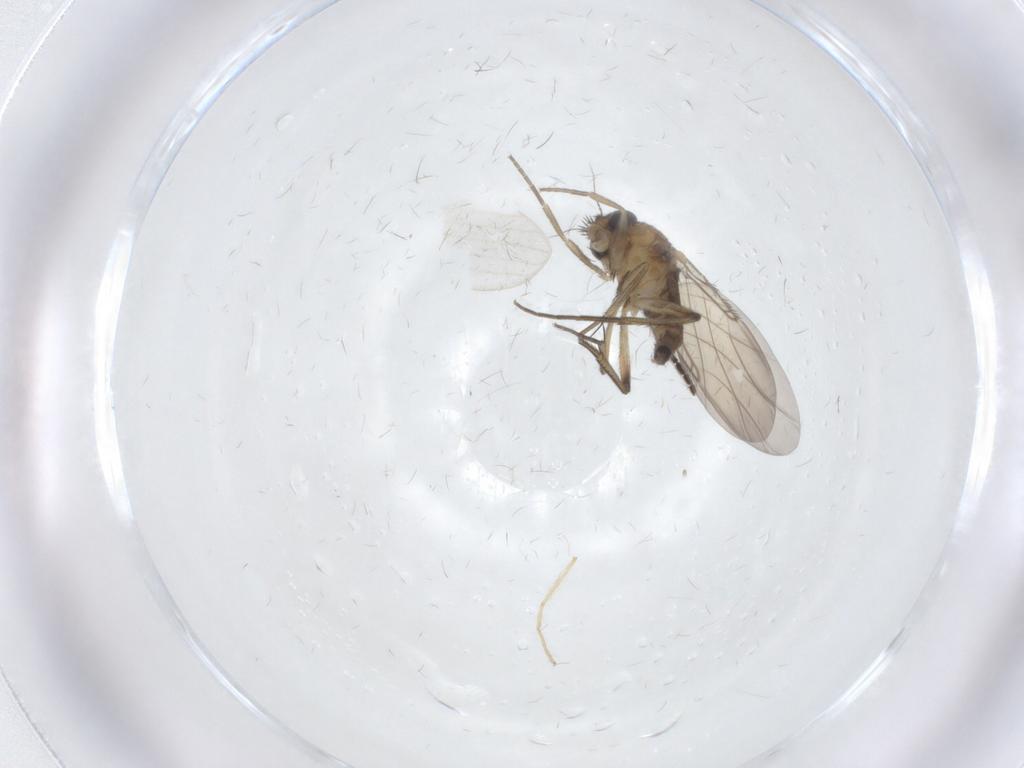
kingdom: Animalia
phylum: Arthropoda
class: Insecta
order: Diptera
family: Phoridae
